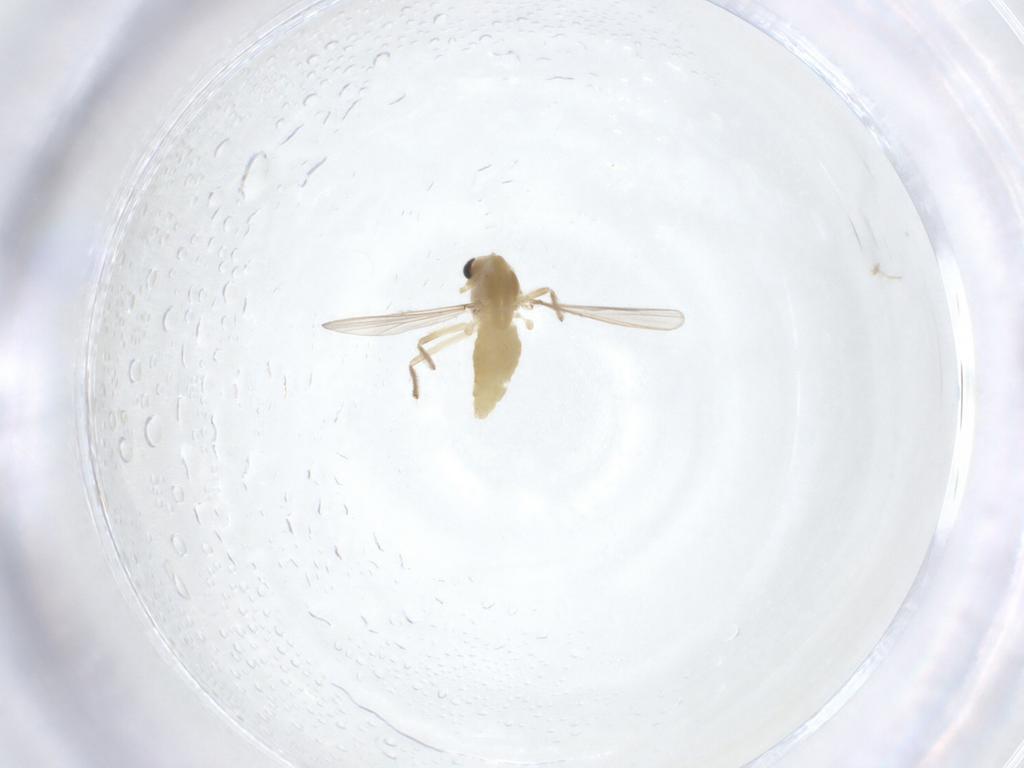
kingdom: Animalia
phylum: Arthropoda
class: Insecta
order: Diptera
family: Chironomidae
